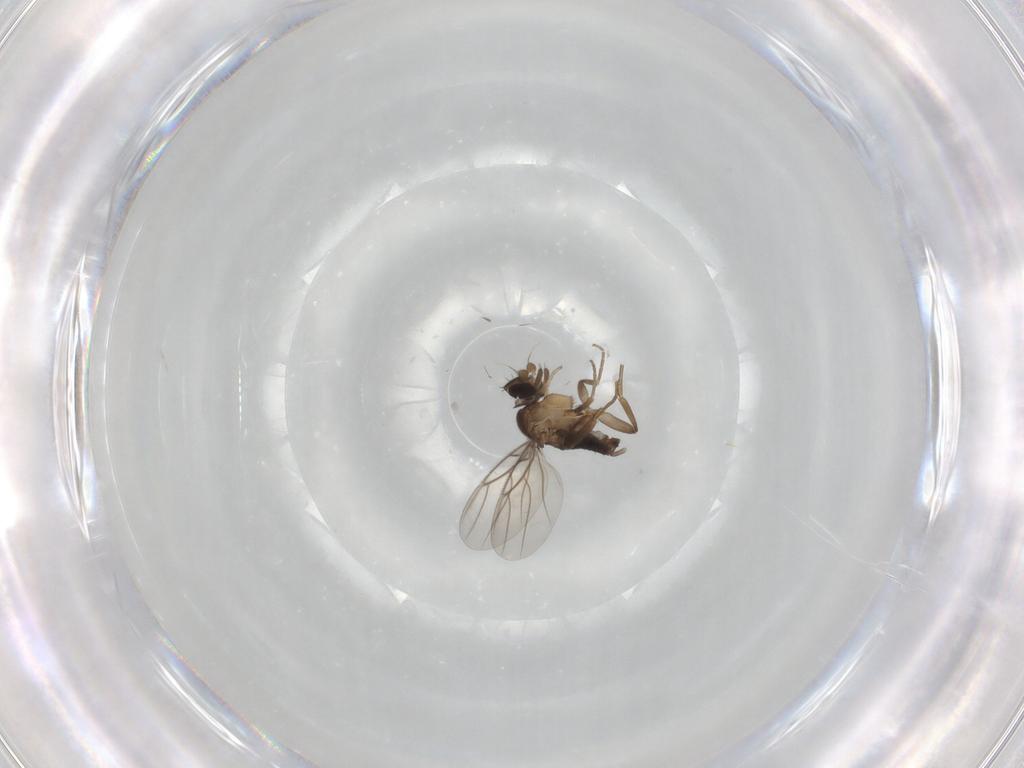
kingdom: Animalia
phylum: Arthropoda
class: Insecta
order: Diptera
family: Phoridae
